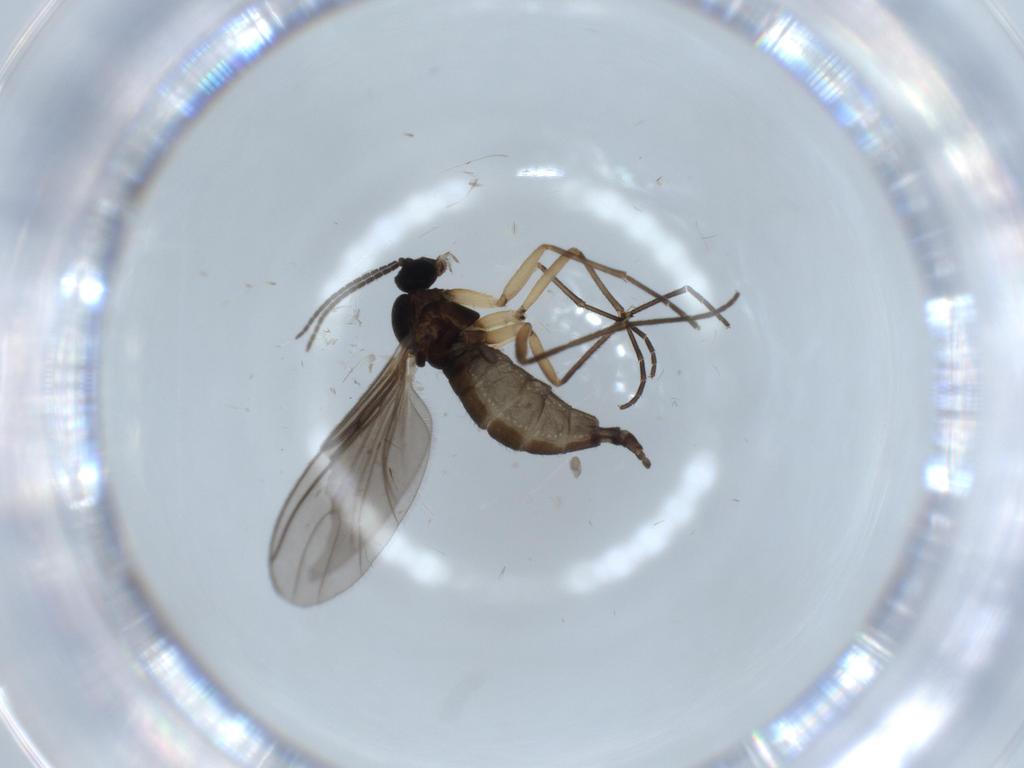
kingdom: Animalia
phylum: Arthropoda
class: Insecta
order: Diptera
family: Sciaridae
